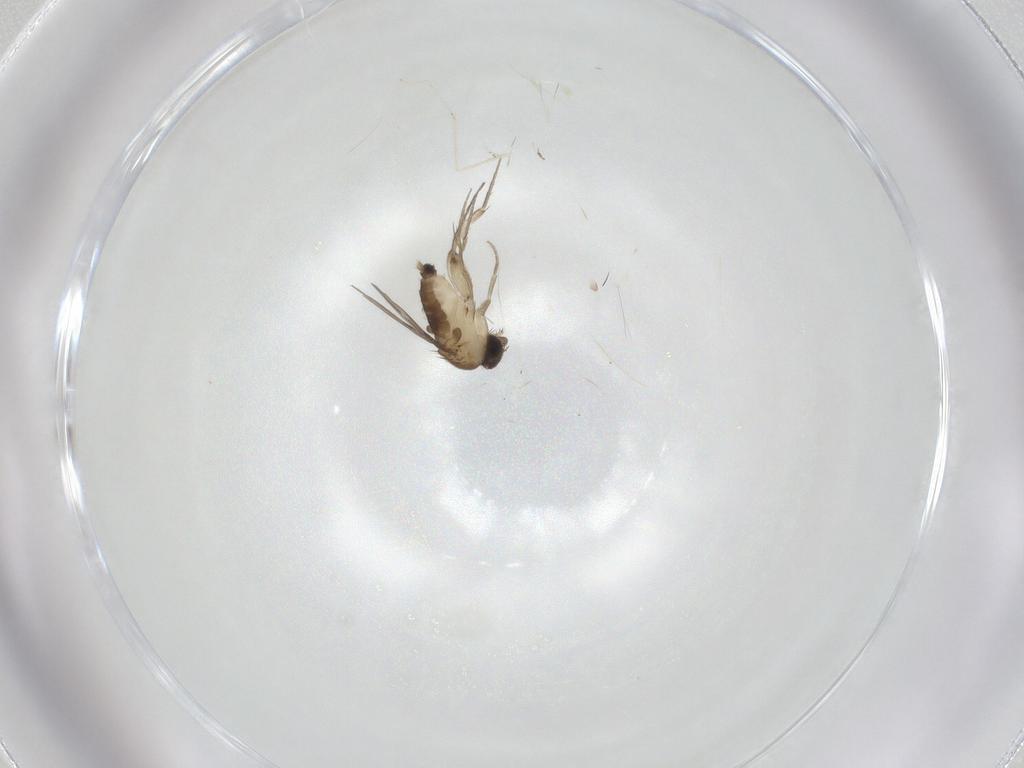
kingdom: Animalia
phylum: Arthropoda
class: Insecta
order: Diptera
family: Phoridae
